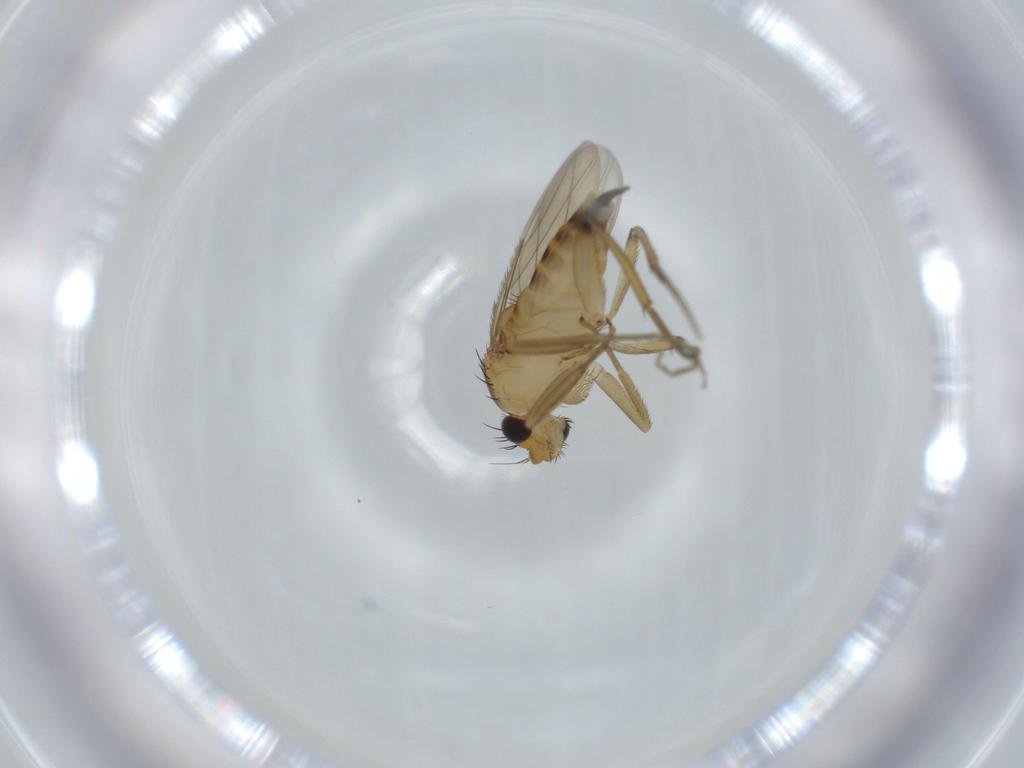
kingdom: Animalia
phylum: Arthropoda
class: Insecta
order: Diptera
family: Phoridae
